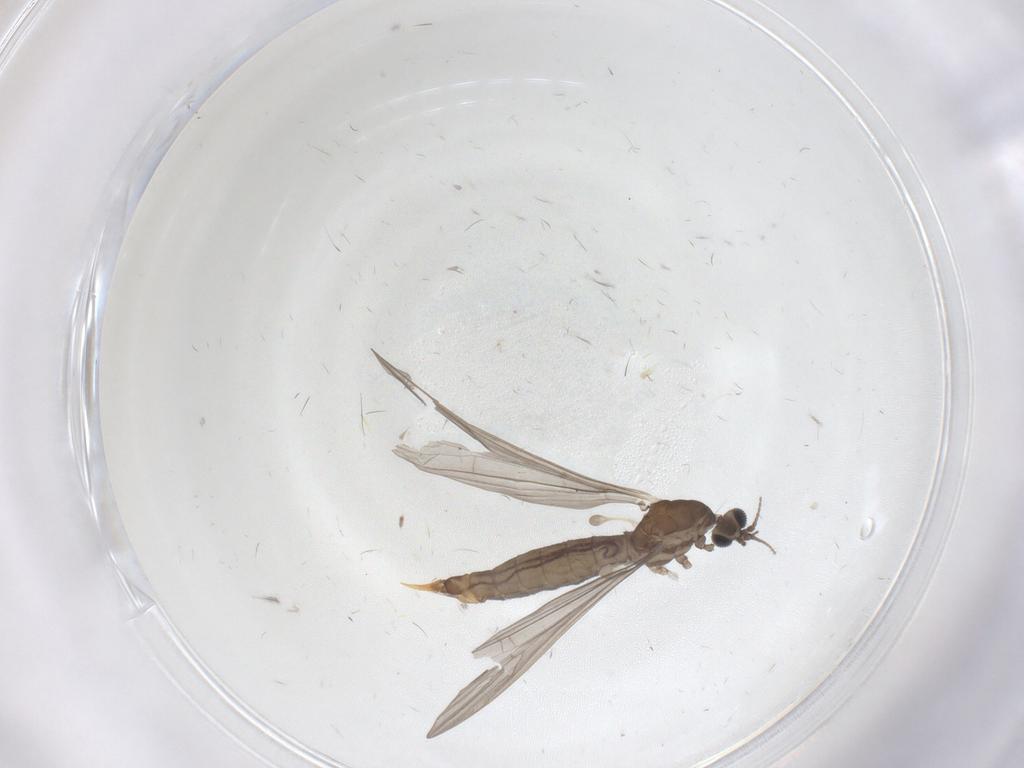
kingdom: Animalia
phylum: Arthropoda
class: Insecta
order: Diptera
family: Limoniidae
